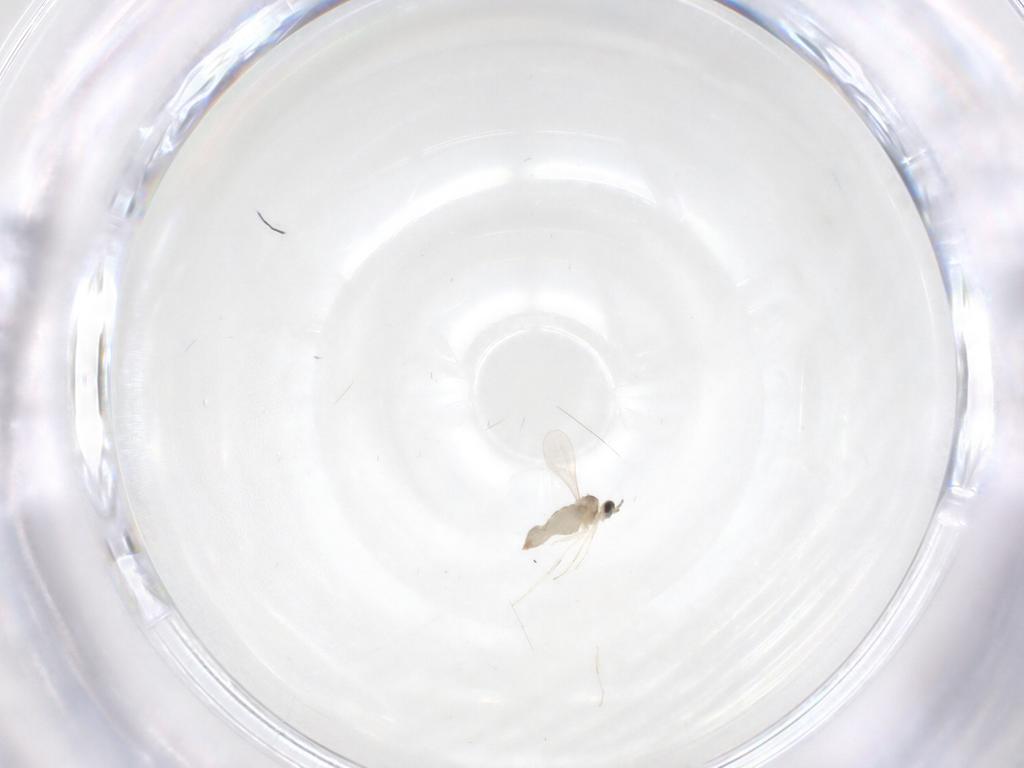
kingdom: Animalia
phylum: Arthropoda
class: Insecta
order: Diptera
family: Cecidomyiidae
